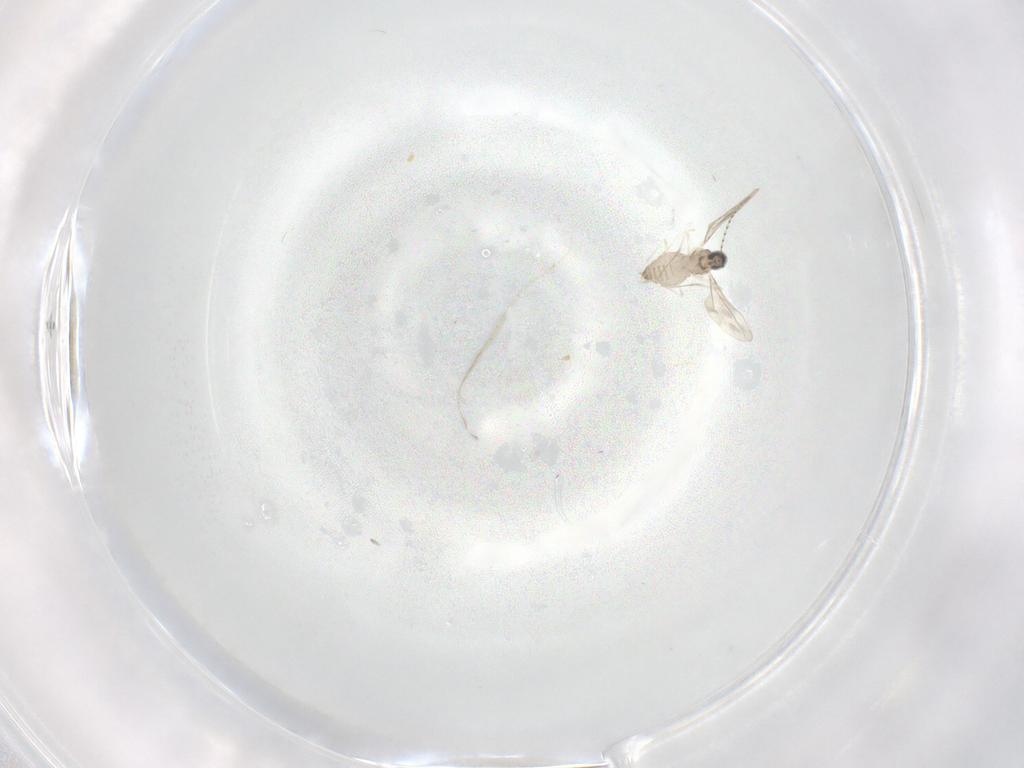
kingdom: Animalia
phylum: Arthropoda
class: Insecta
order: Diptera
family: Cecidomyiidae
